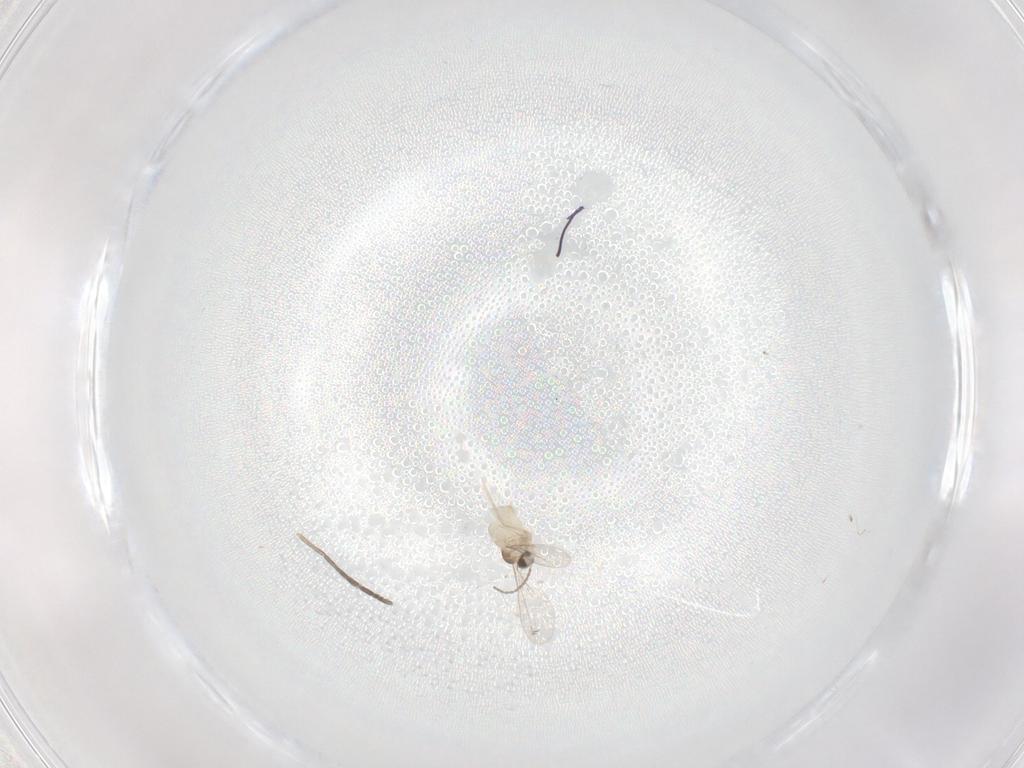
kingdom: Animalia
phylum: Arthropoda
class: Insecta
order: Diptera
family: Cecidomyiidae
